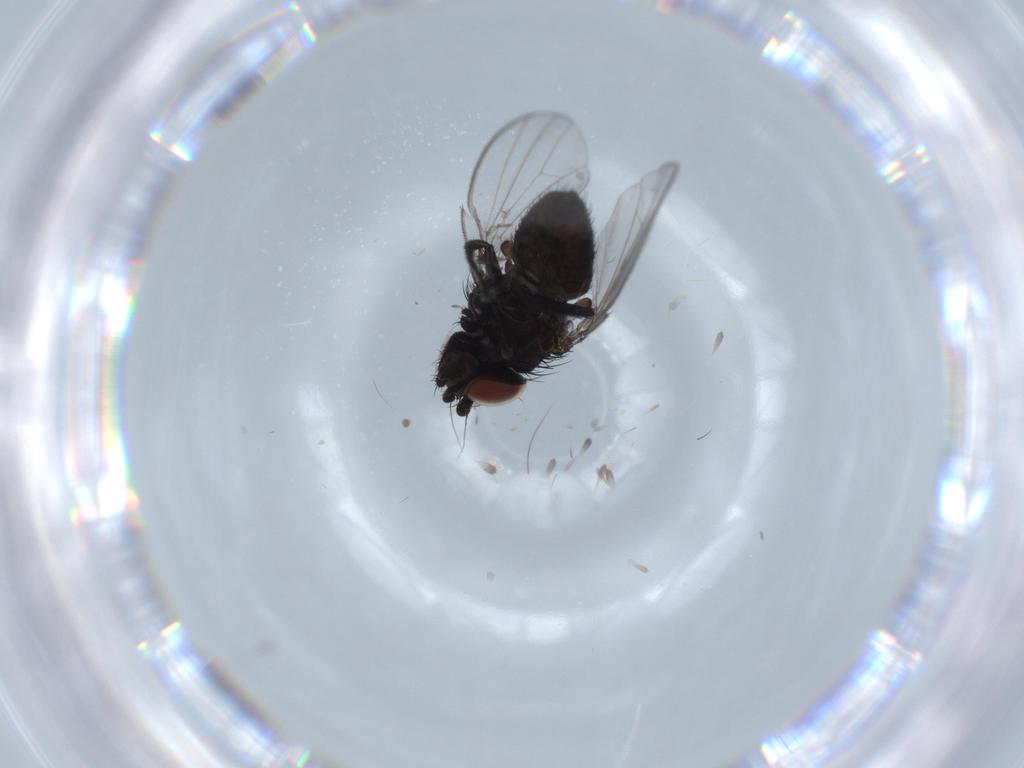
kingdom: Animalia
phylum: Arthropoda
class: Insecta
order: Diptera
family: Milichiidae
